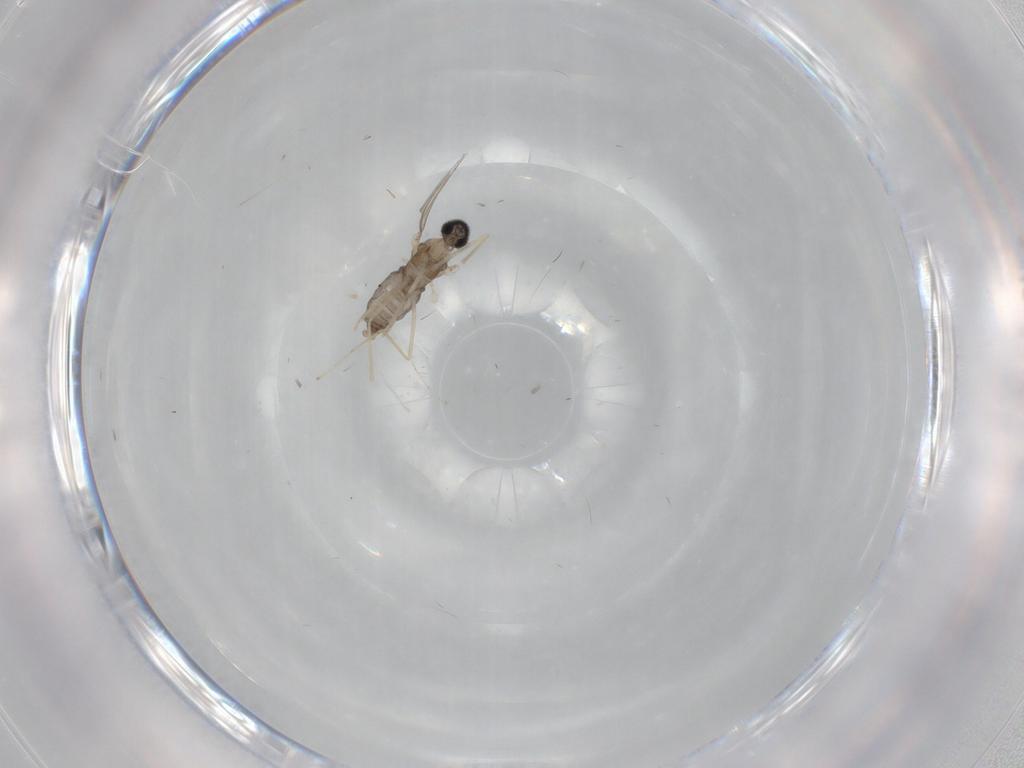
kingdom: Animalia
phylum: Arthropoda
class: Insecta
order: Diptera
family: Cecidomyiidae
